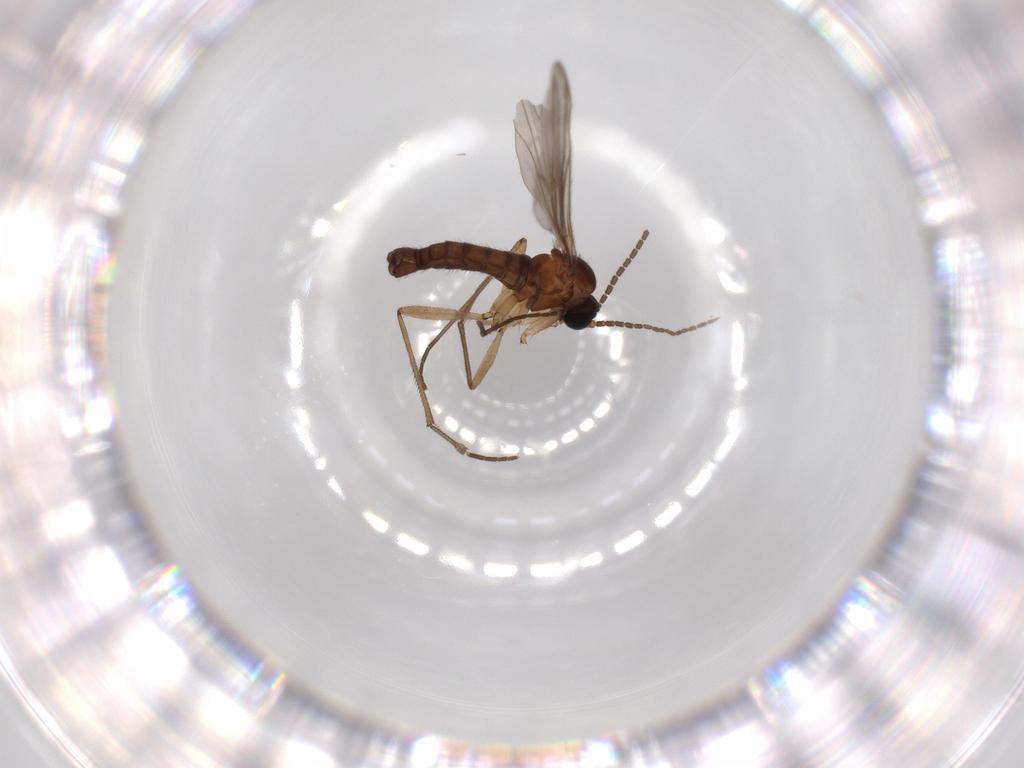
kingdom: Animalia
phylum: Arthropoda
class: Insecta
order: Diptera
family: Sciaridae
